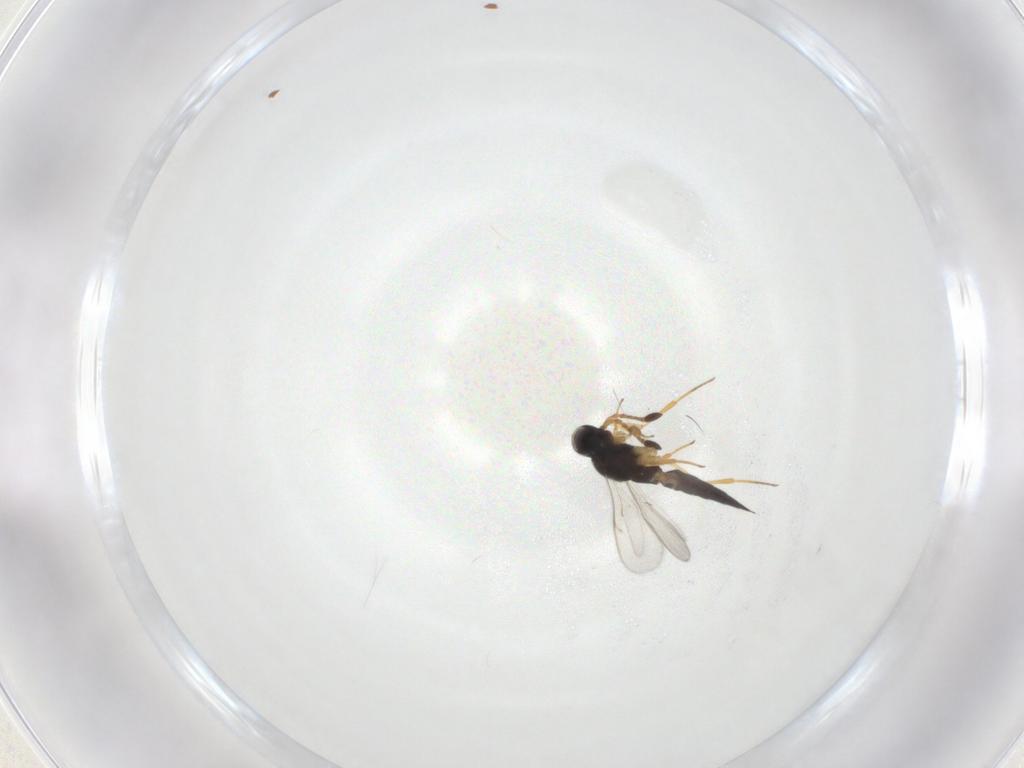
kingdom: Animalia
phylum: Arthropoda
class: Insecta
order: Hymenoptera
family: Scelionidae
